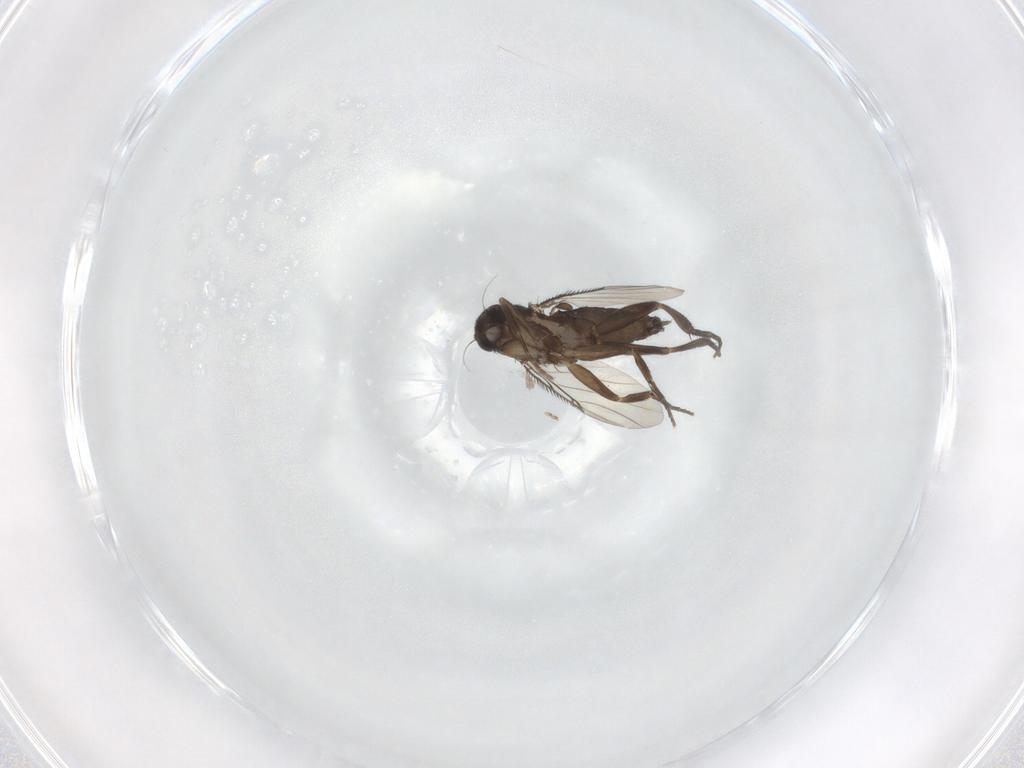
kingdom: Animalia
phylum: Arthropoda
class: Insecta
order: Diptera
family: Phoridae
